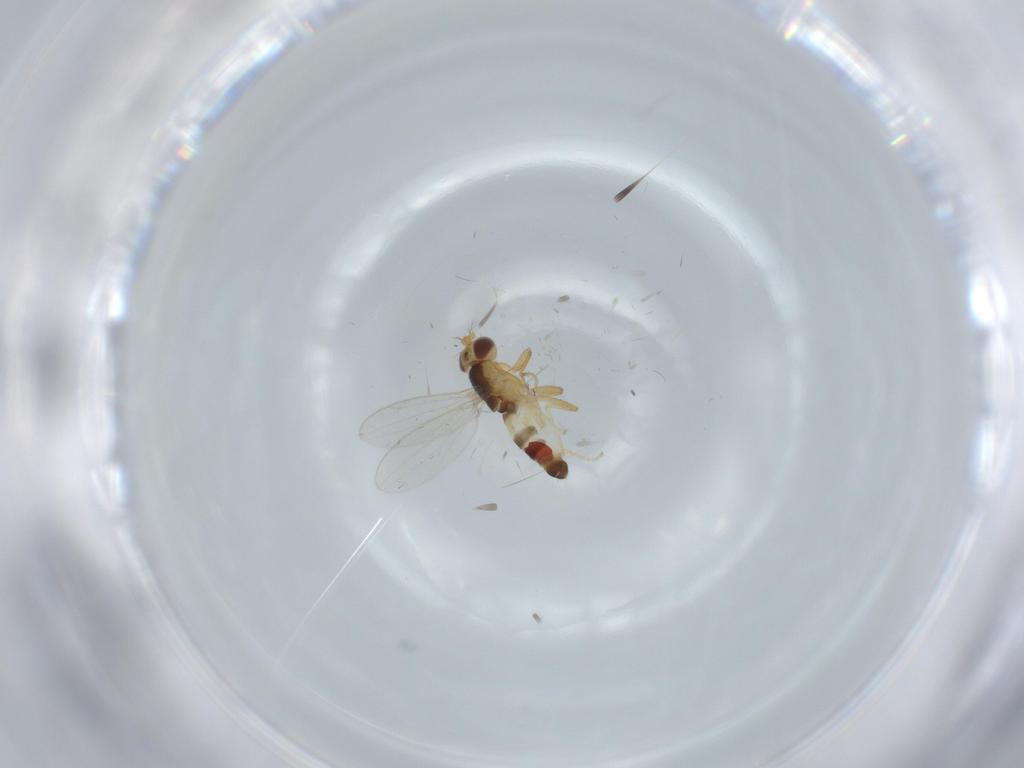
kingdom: Animalia
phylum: Arthropoda
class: Insecta
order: Diptera
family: Dolichopodidae
